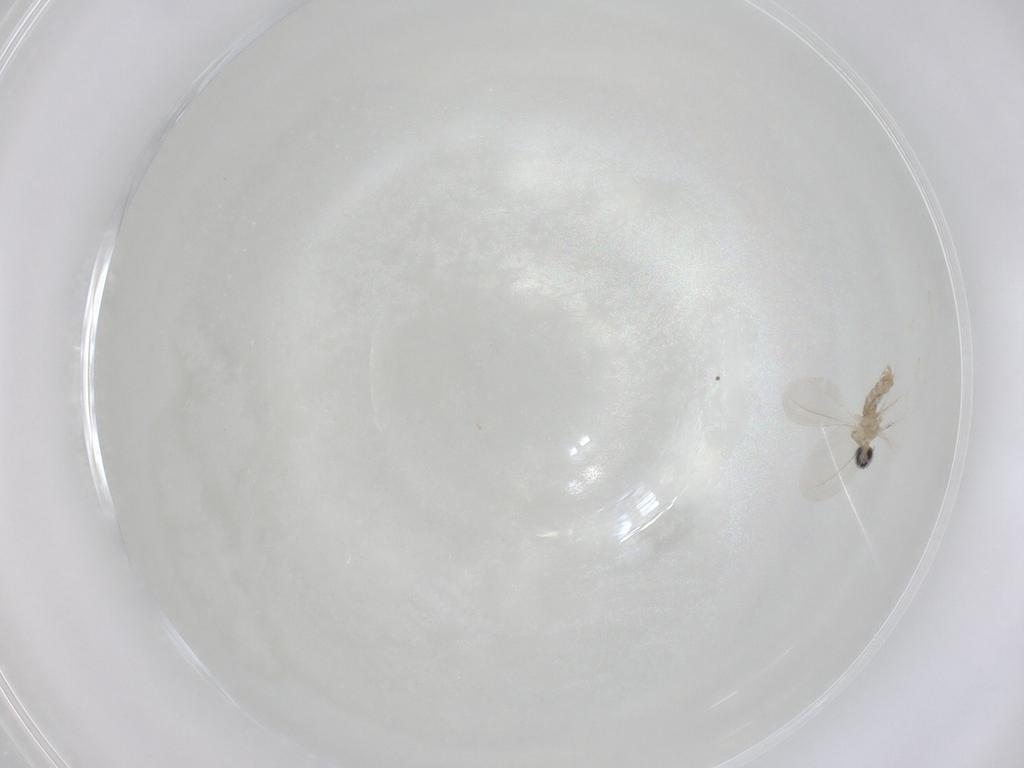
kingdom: Animalia
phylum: Arthropoda
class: Insecta
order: Diptera
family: Cecidomyiidae
